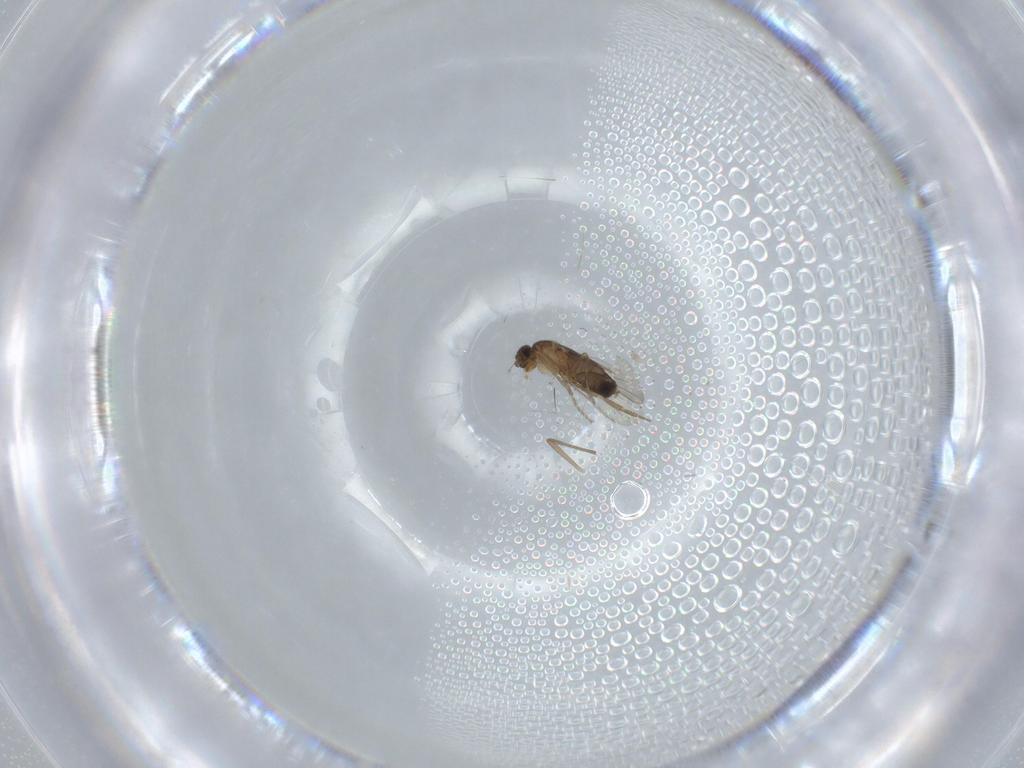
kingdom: Animalia
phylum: Arthropoda
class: Insecta
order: Diptera
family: Phoridae
